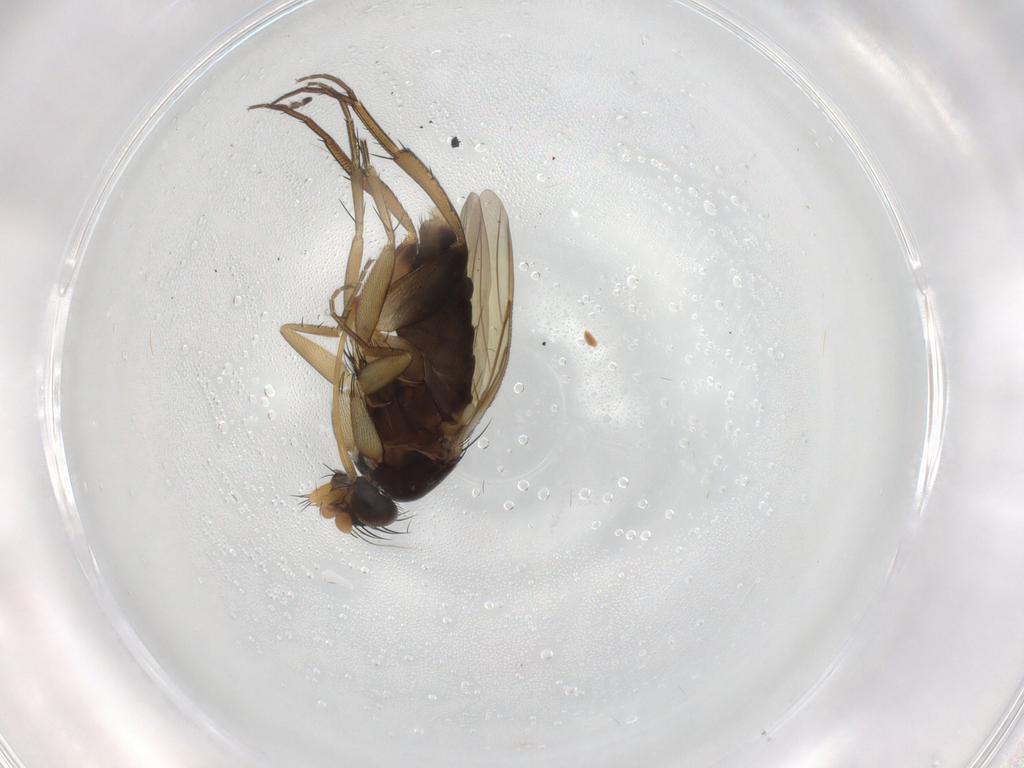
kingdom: Animalia
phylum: Arthropoda
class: Insecta
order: Diptera
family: Phoridae
